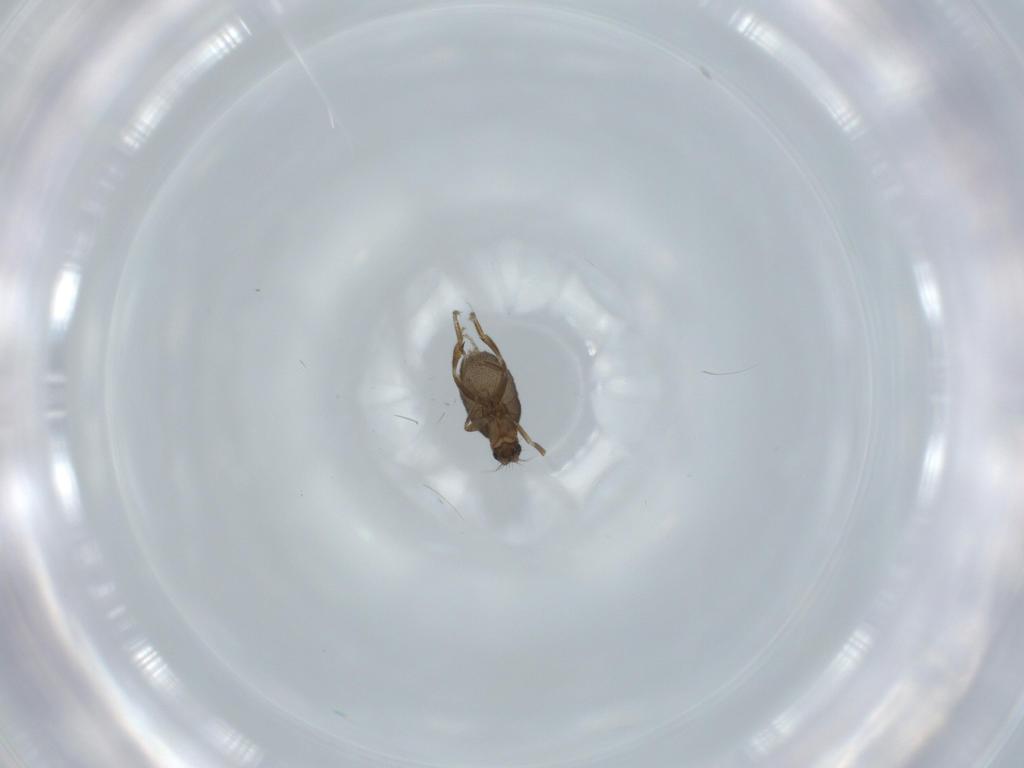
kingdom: Animalia
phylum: Arthropoda
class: Insecta
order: Diptera
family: Phoridae
